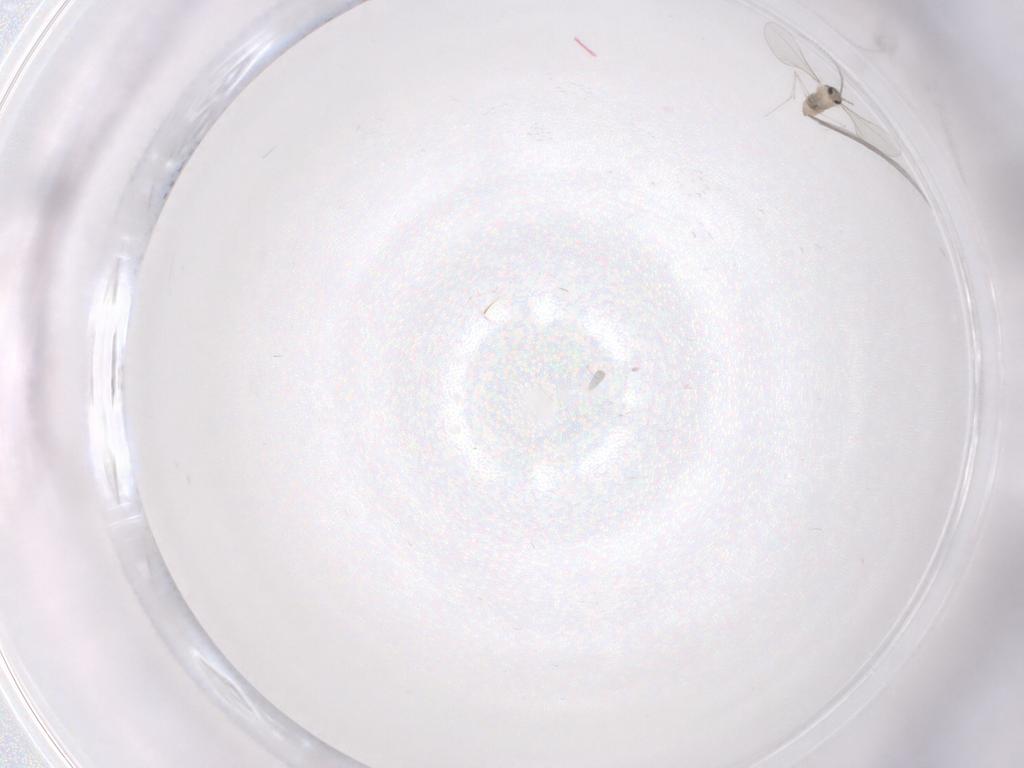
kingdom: Animalia
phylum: Arthropoda
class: Insecta
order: Diptera
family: Cecidomyiidae
